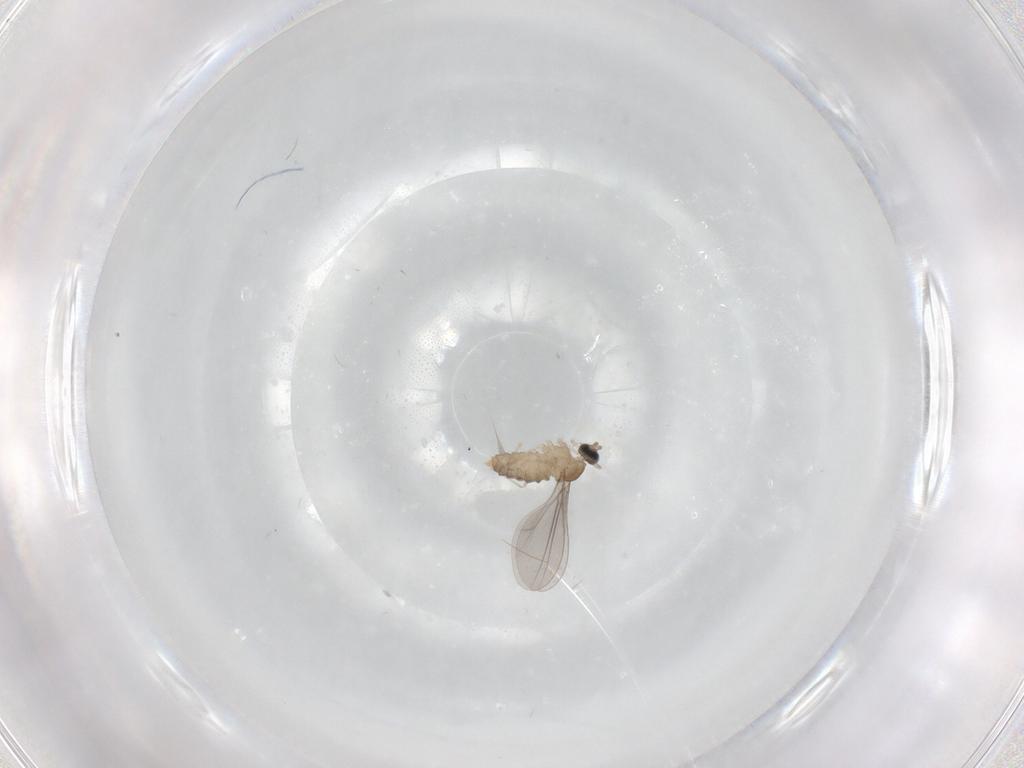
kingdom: Animalia
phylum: Arthropoda
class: Insecta
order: Diptera
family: Cecidomyiidae
